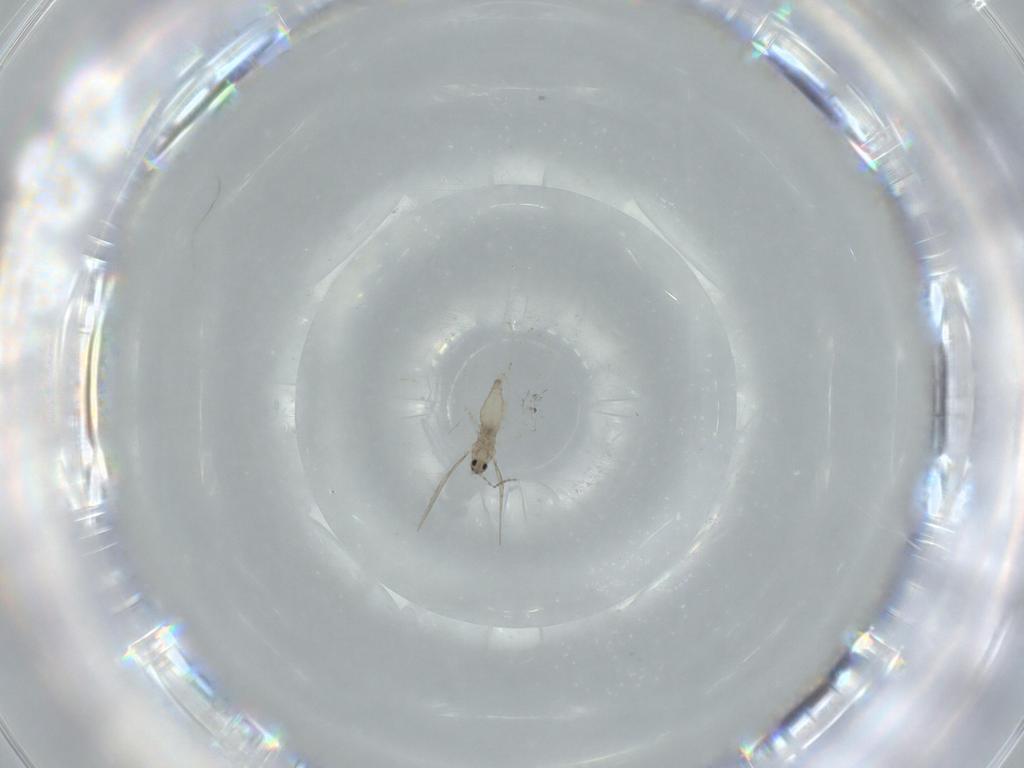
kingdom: Animalia
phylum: Arthropoda
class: Insecta
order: Diptera
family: Cecidomyiidae
